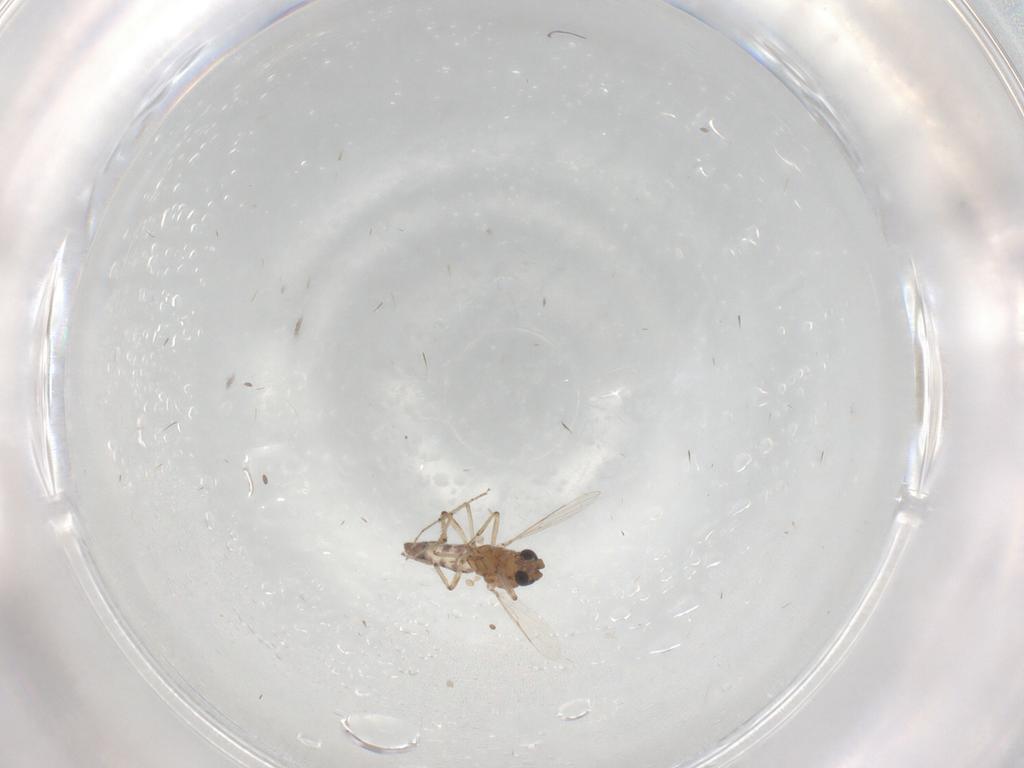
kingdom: Animalia
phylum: Arthropoda
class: Insecta
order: Diptera
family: Ceratopogonidae
